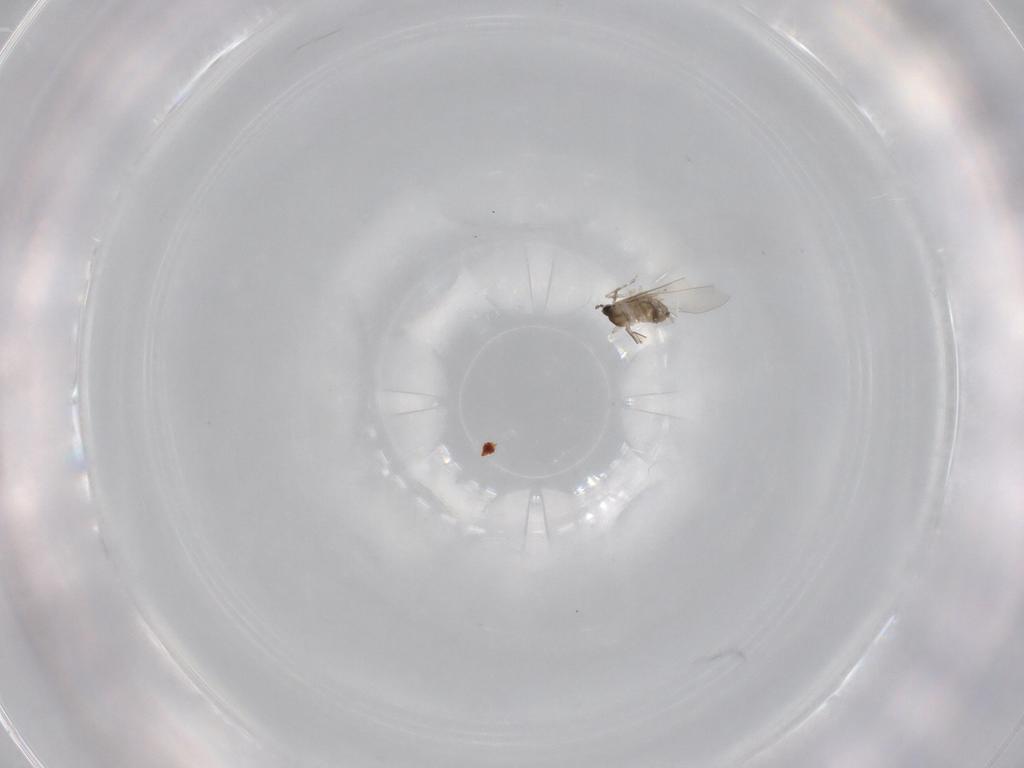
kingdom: Animalia
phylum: Arthropoda
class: Insecta
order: Diptera
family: Cecidomyiidae
